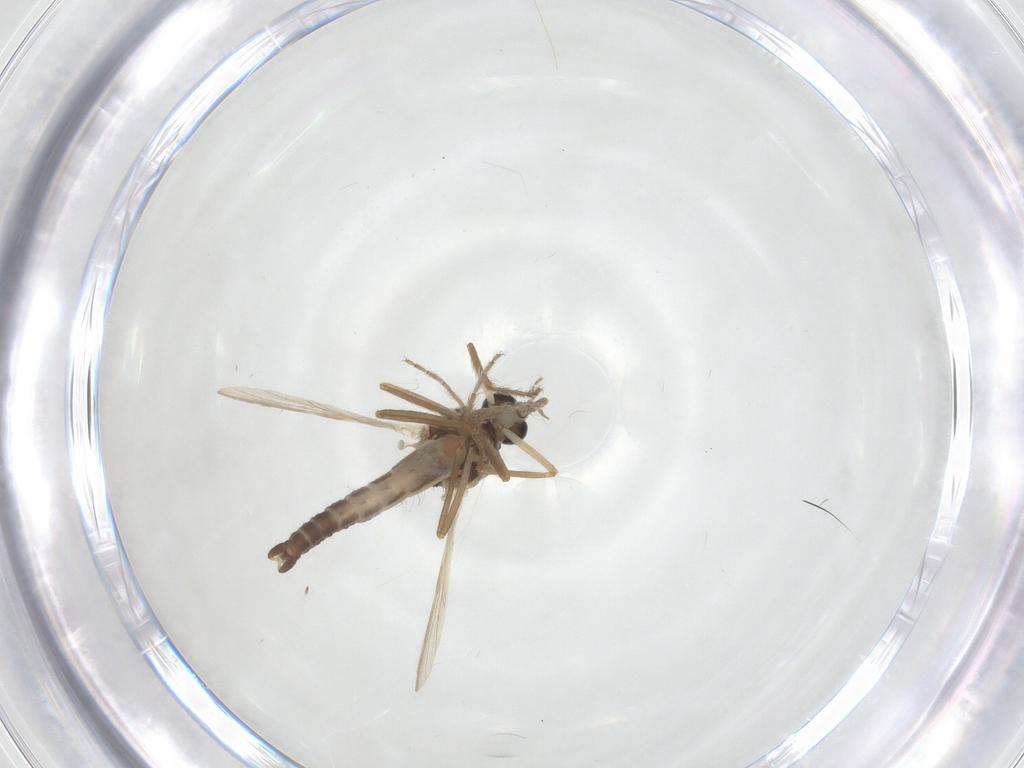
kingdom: Animalia
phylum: Arthropoda
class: Insecta
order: Diptera
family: Ceratopogonidae
